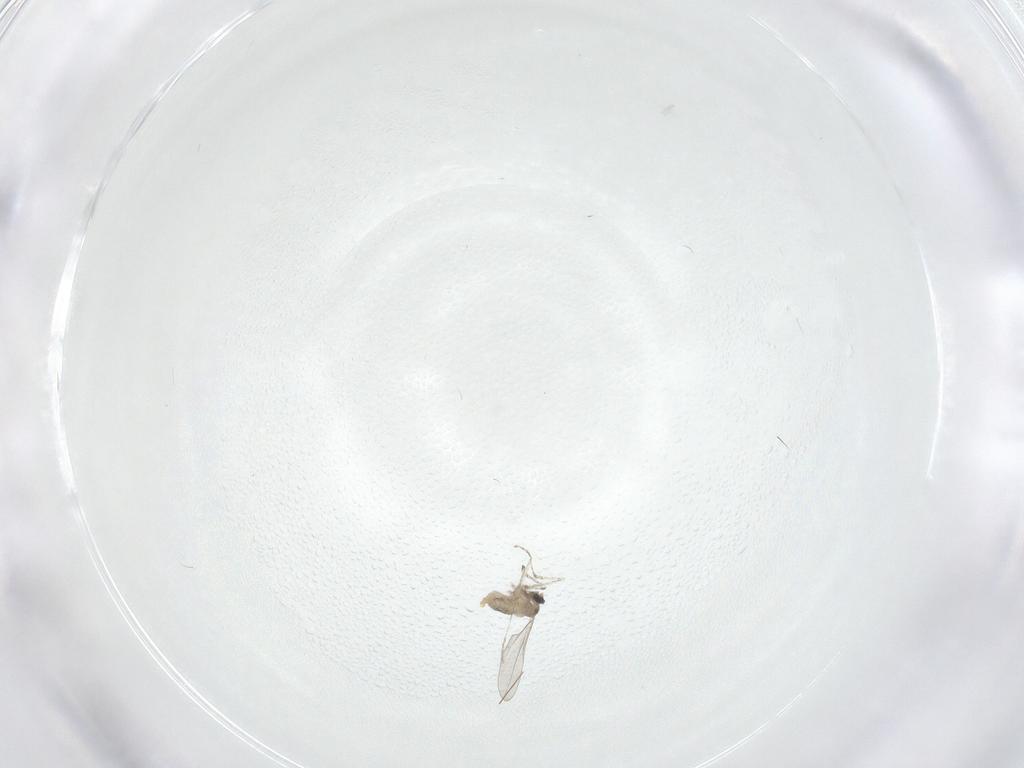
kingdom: Animalia
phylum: Arthropoda
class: Insecta
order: Diptera
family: Cecidomyiidae
